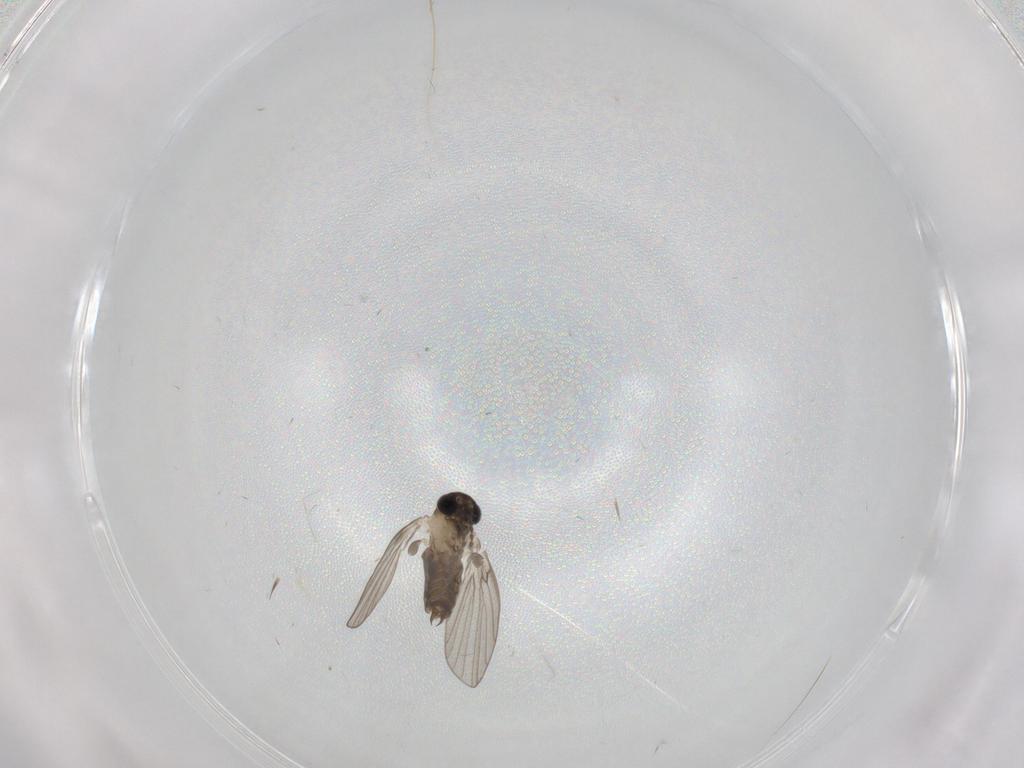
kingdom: Animalia
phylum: Arthropoda
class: Insecta
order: Diptera
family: Psychodidae
